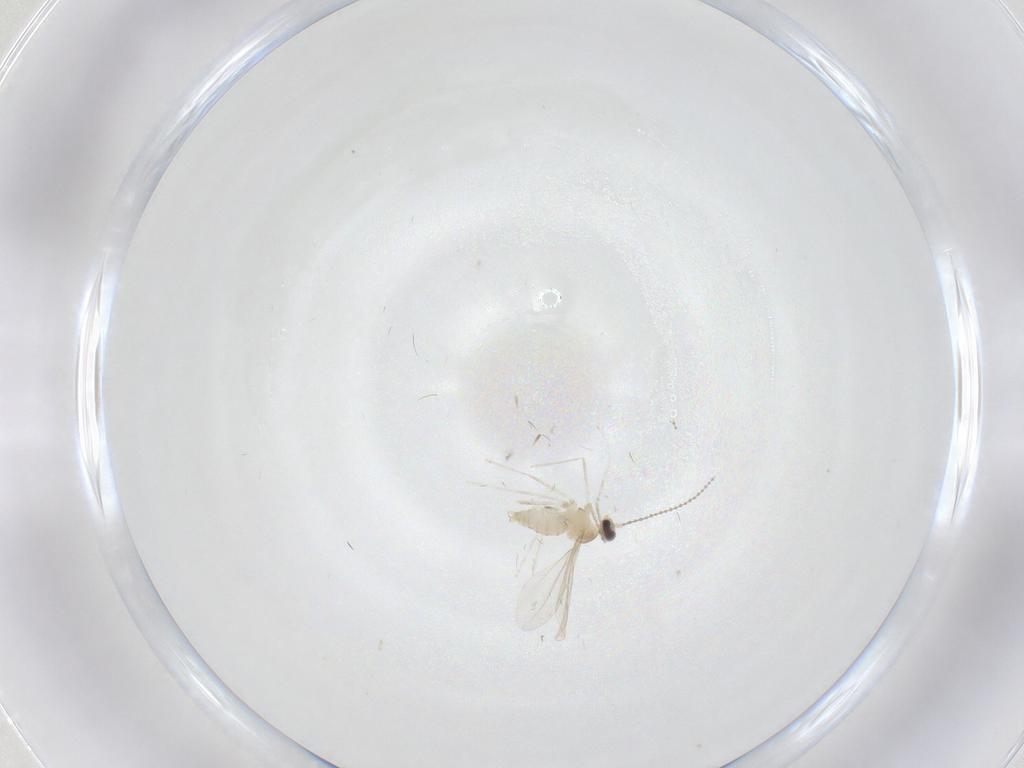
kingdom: Animalia
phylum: Arthropoda
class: Insecta
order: Diptera
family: Cecidomyiidae
